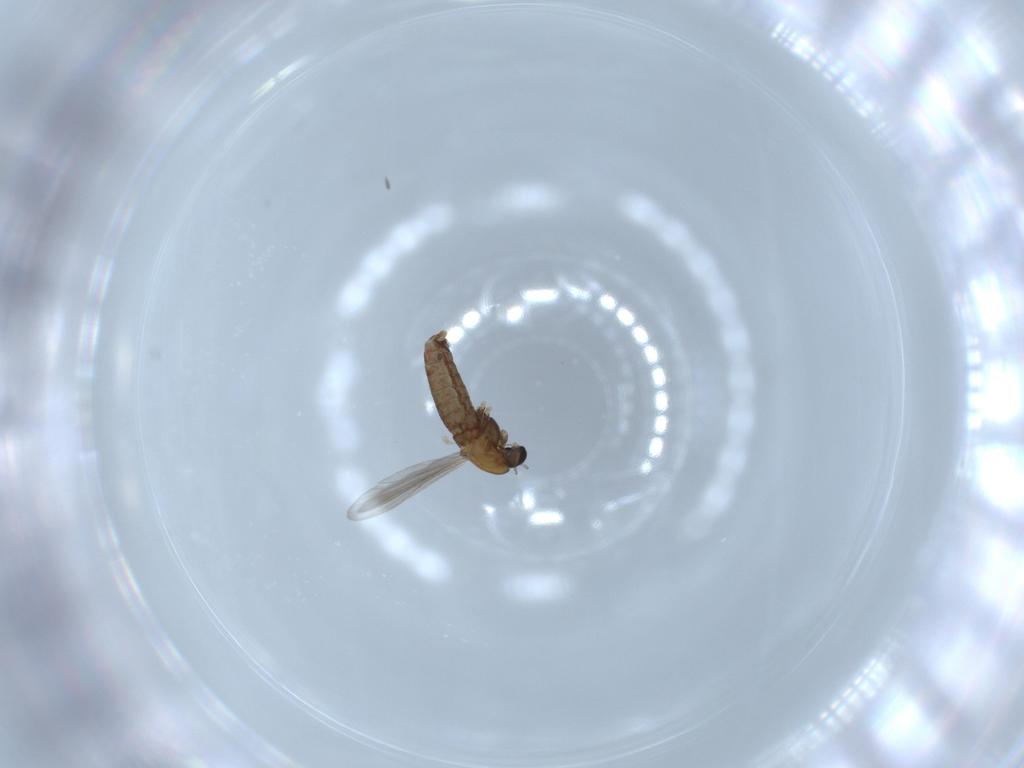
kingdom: Animalia
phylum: Arthropoda
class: Insecta
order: Diptera
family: Chironomidae
